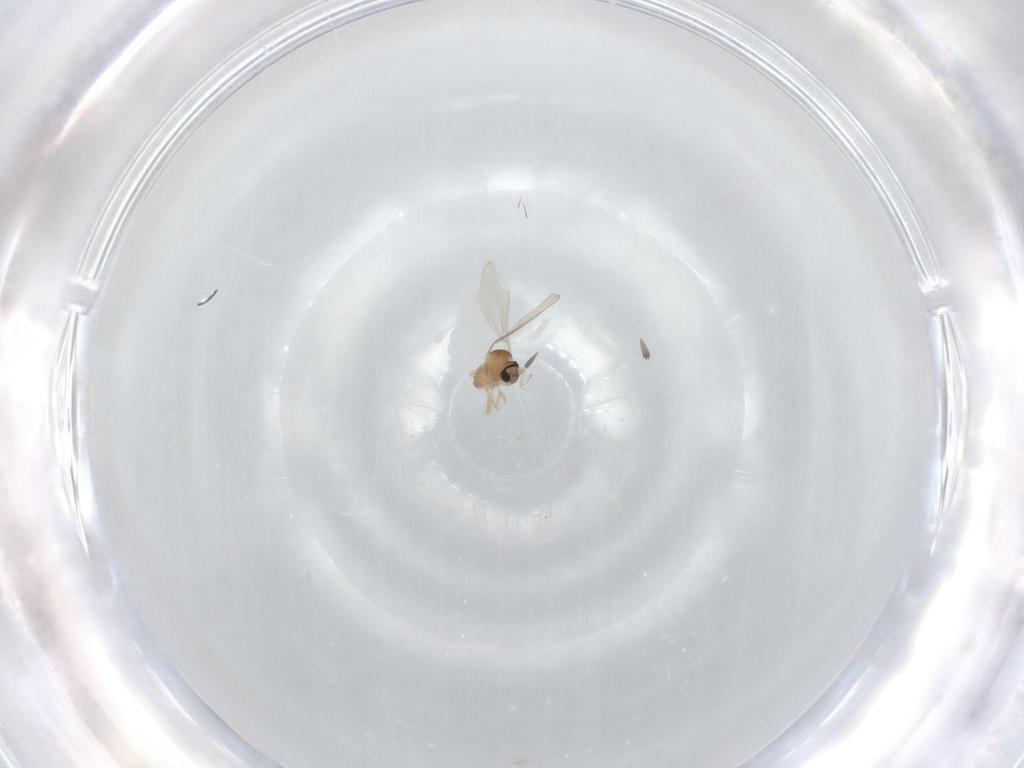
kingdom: Animalia
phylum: Arthropoda
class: Insecta
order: Diptera
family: Cecidomyiidae
